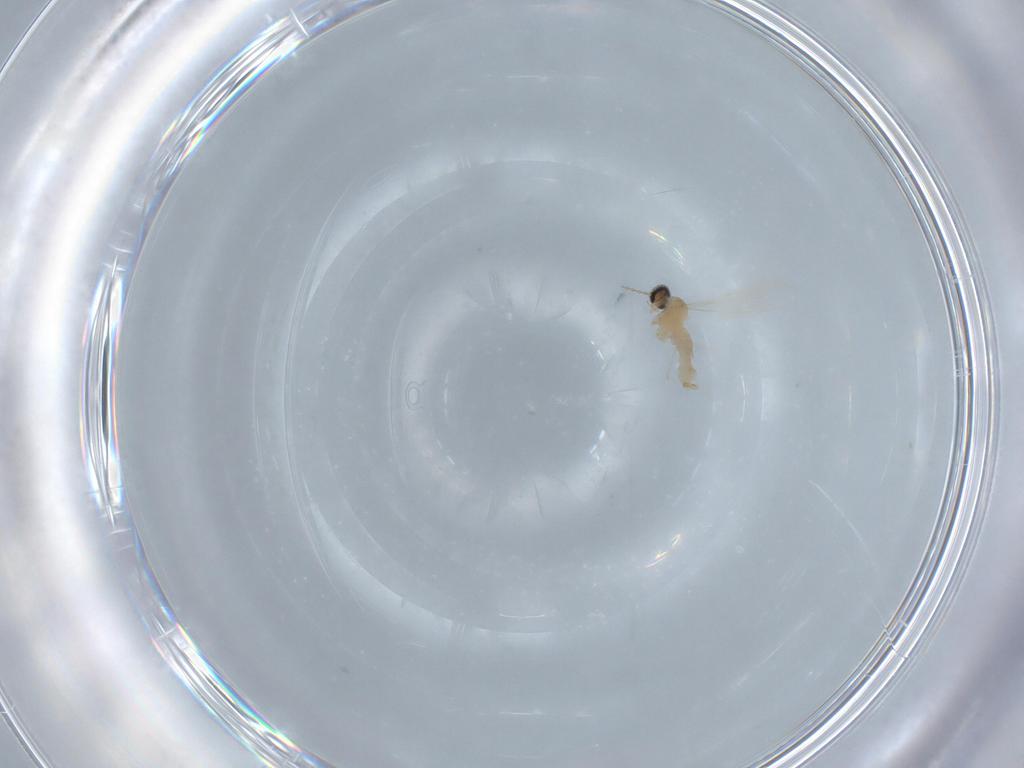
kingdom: Animalia
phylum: Arthropoda
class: Insecta
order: Diptera
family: Cecidomyiidae
